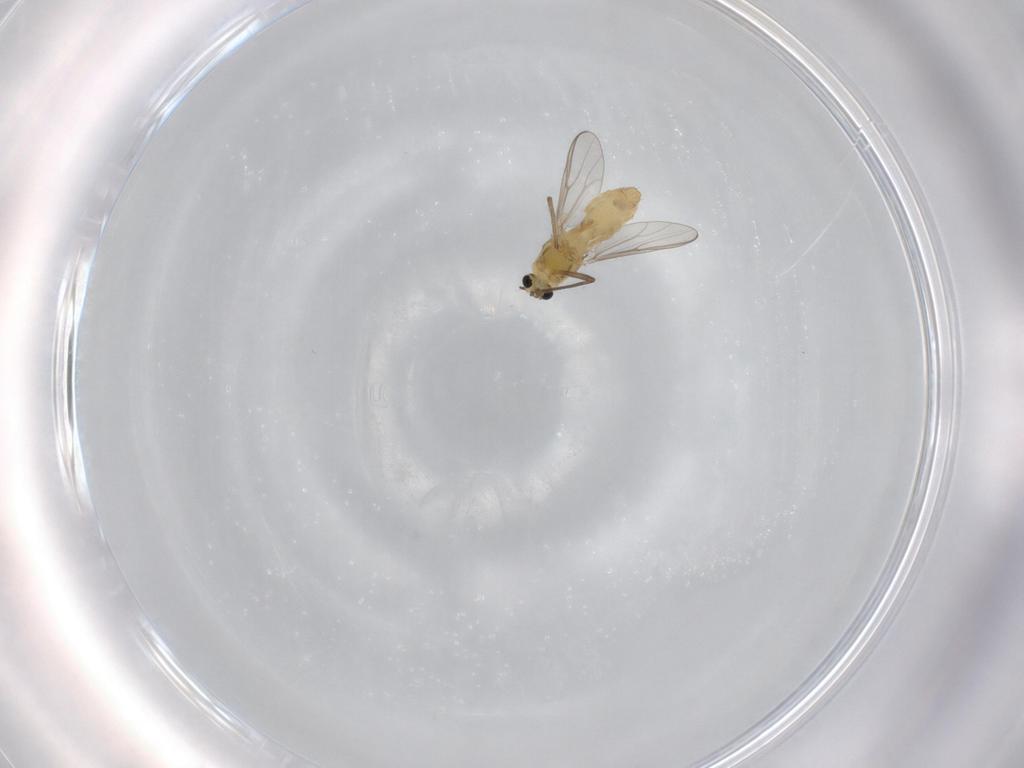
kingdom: Animalia
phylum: Arthropoda
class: Insecta
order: Diptera
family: Chironomidae
